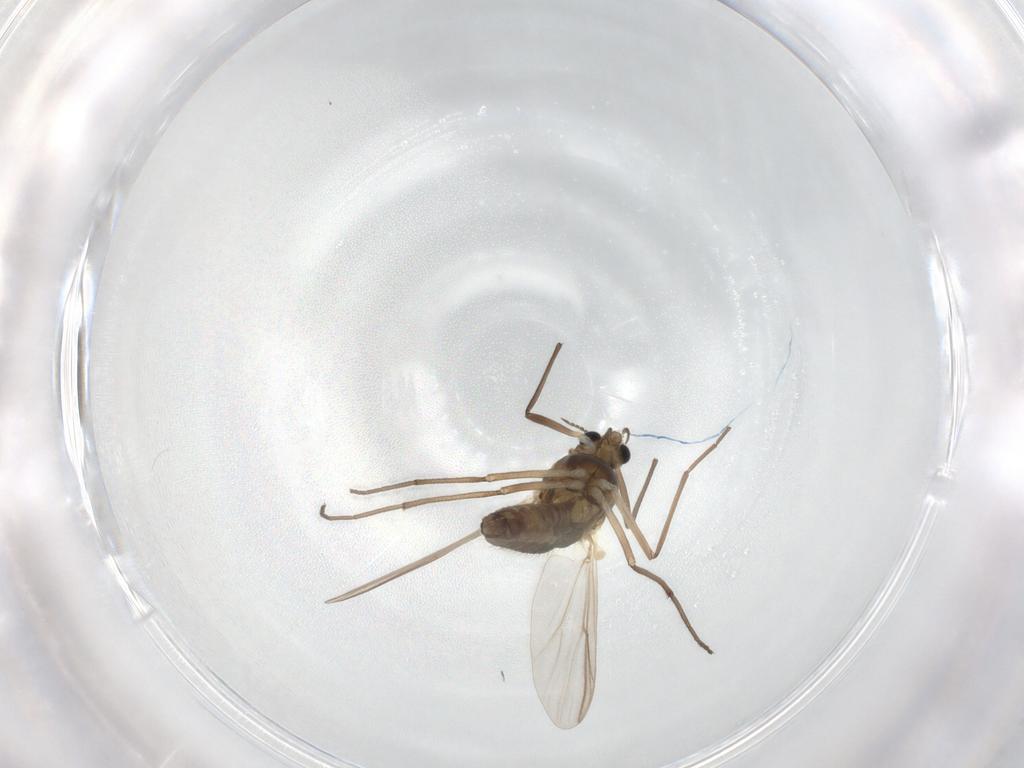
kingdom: Animalia
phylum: Arthropoda
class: Insecta
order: Diptera
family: Chironomidae
